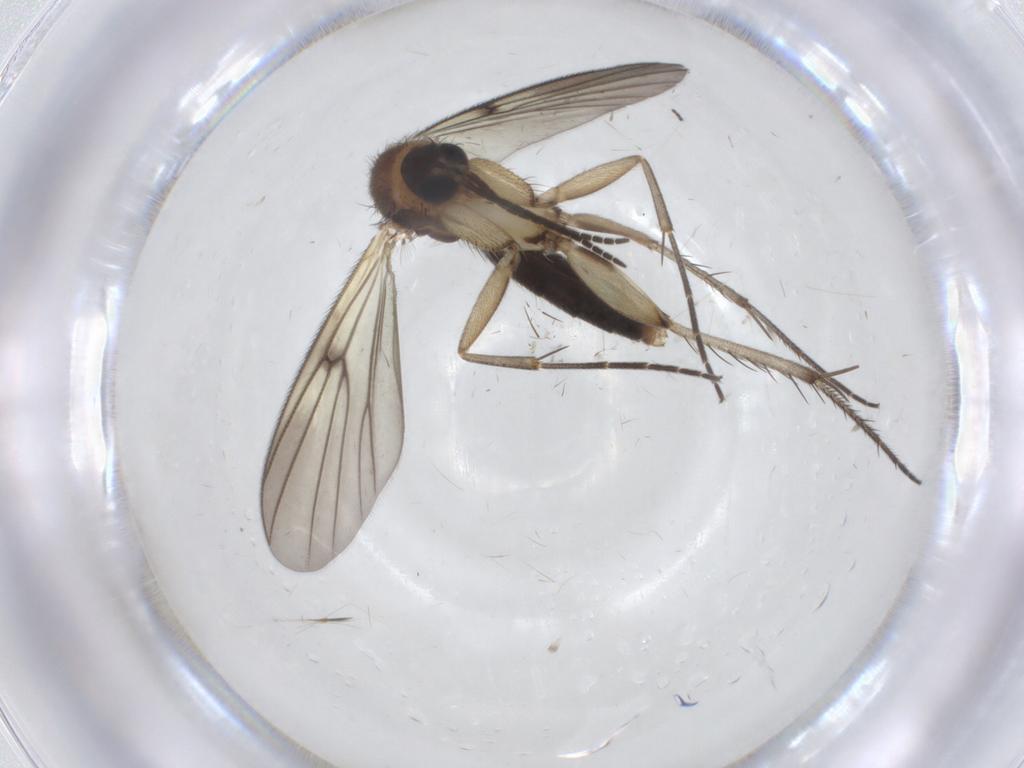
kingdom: Animalia
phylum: Arthropoda
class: Insecta
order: Diptera
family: Mycetophilidae
